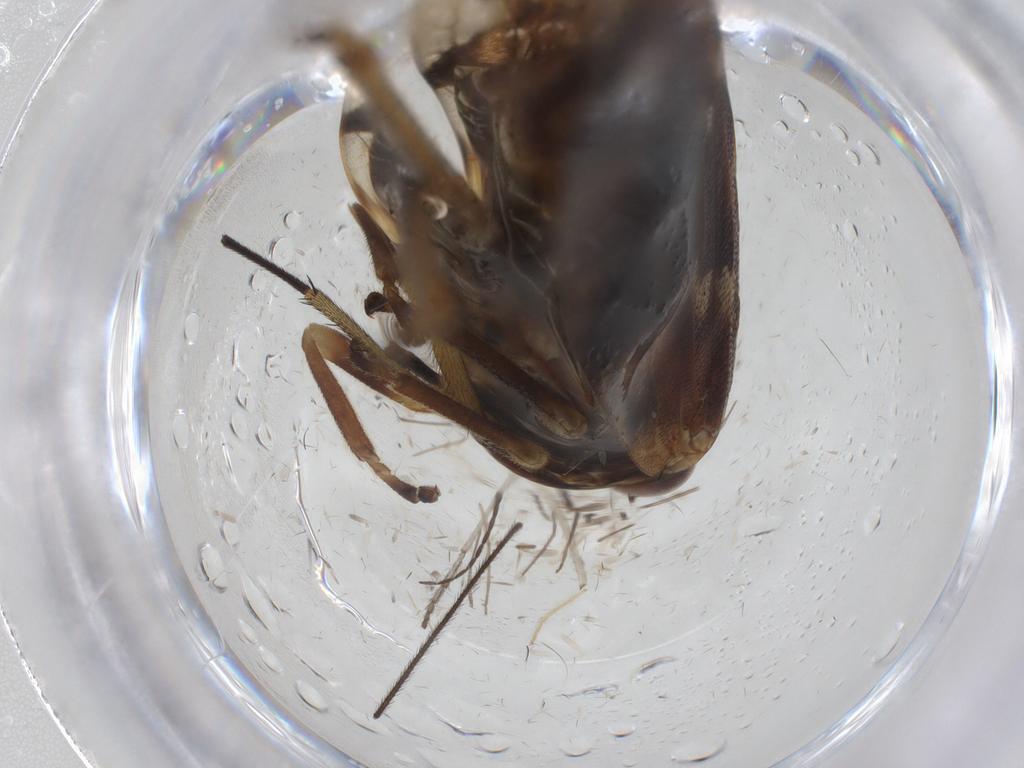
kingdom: Animalia
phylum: Arthropoda
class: Insecta
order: Hemiptera
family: Aphrophoridae
